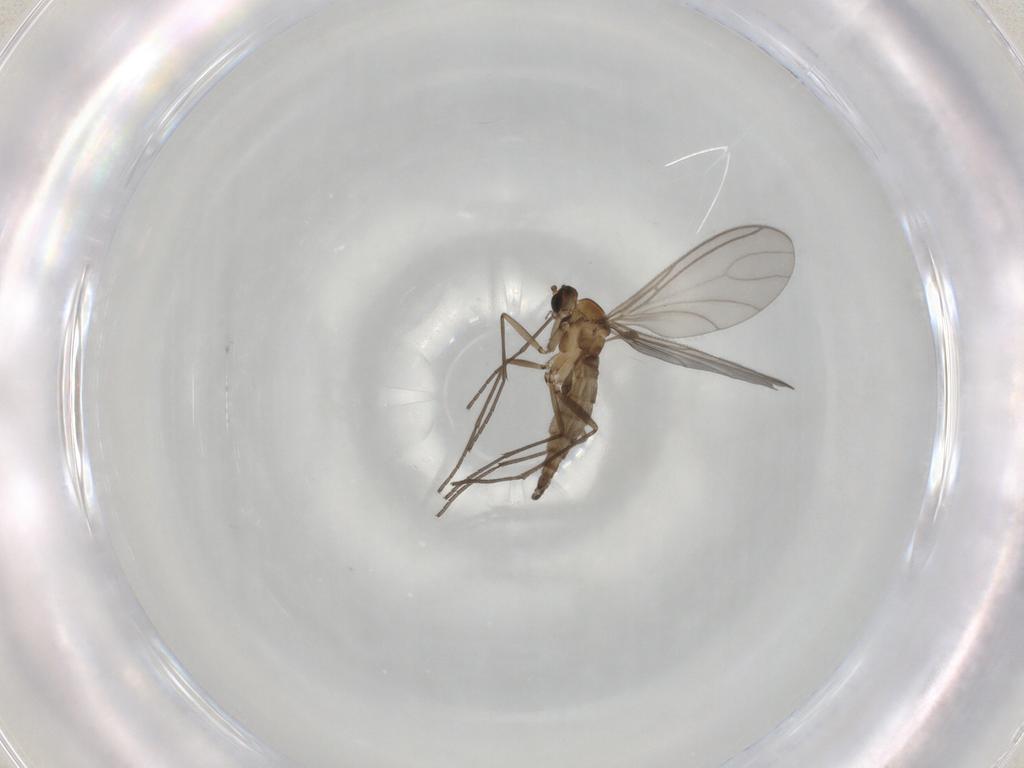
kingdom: Animalia
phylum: Arthropoda
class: Insecta
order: Diptera
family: Sciaridae
